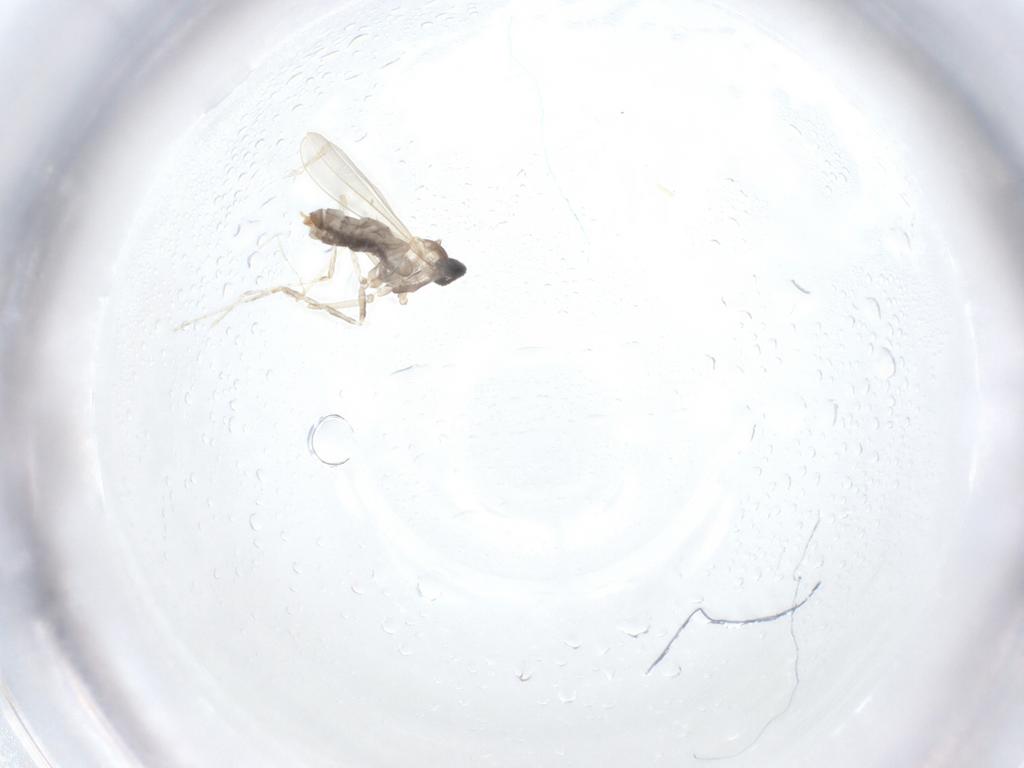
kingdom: Animalia
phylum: Arthropoda
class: Insecta
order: Diptera
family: Cecidomyiidae
